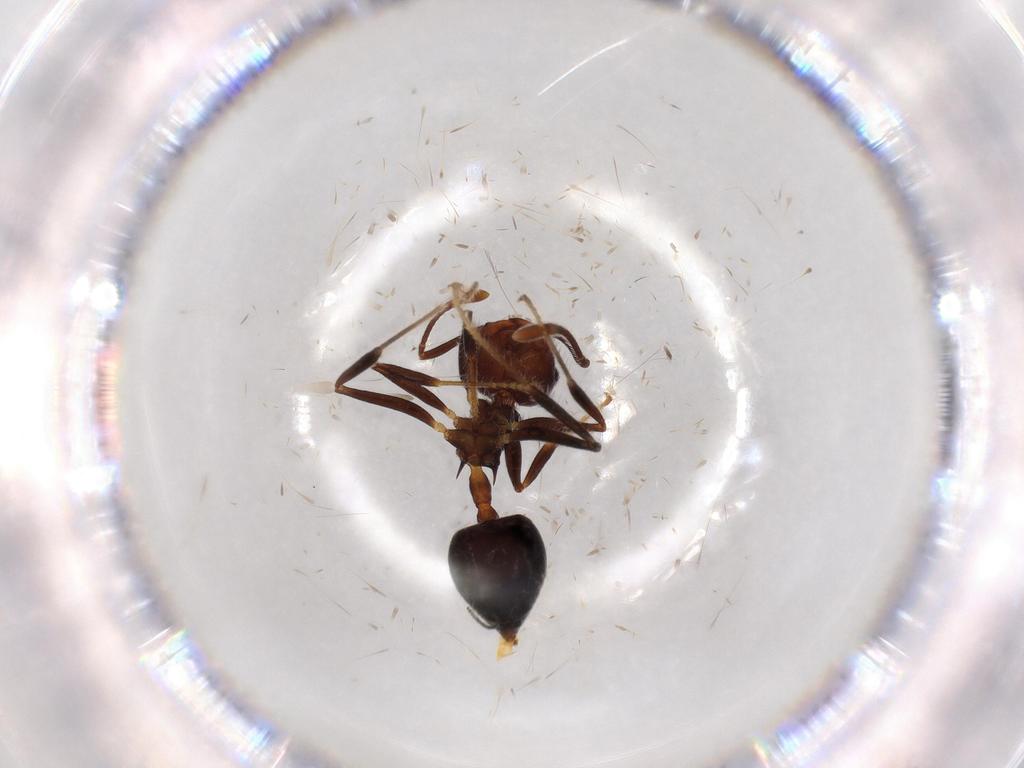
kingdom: Animalia
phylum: Arthropoda
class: Insecta
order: Hymenoptera
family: Formicidae
